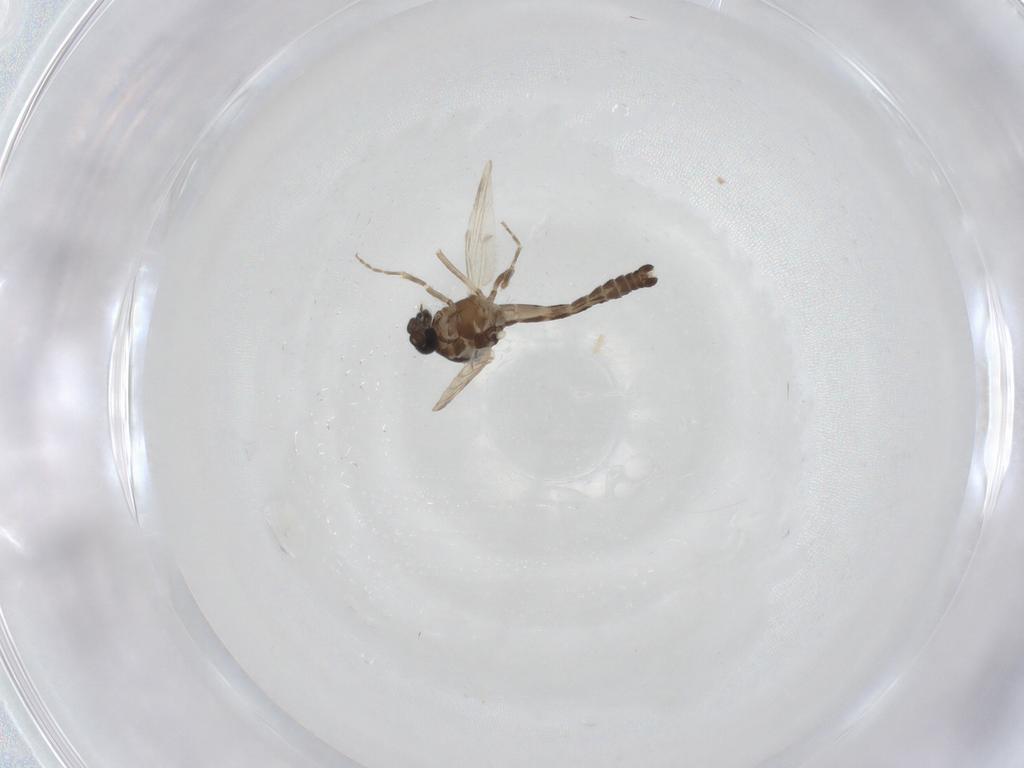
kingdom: Animalia
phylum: Arthropoda
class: Insecta
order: Diptera
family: Ceratopogonidae
